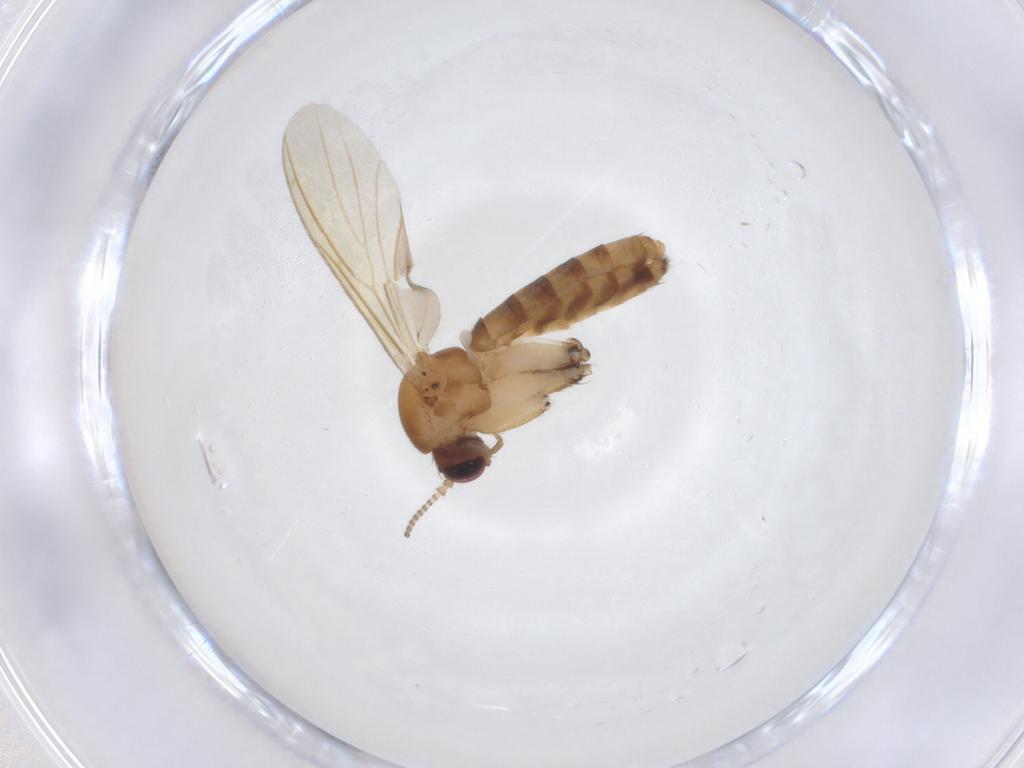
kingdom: Animalia
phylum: Arthropoda
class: Insecta
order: Diptera
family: Mycetophilidae
